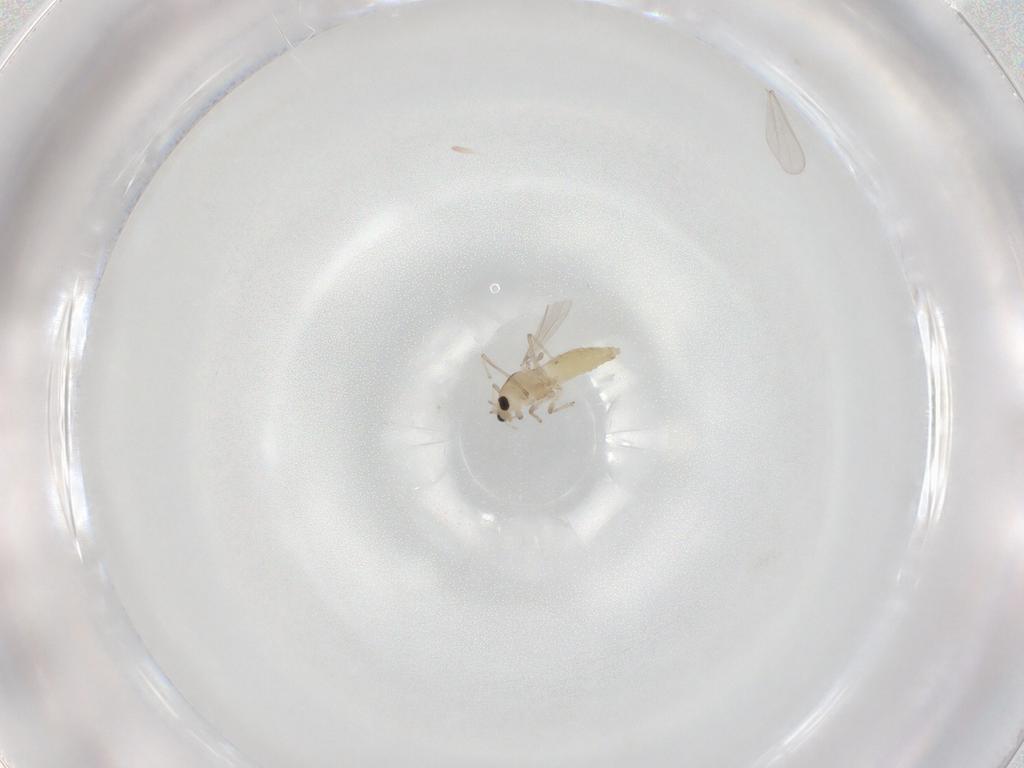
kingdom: Animalia
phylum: Arthropoda
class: Insecta
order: Diptera
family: Chironomidae
